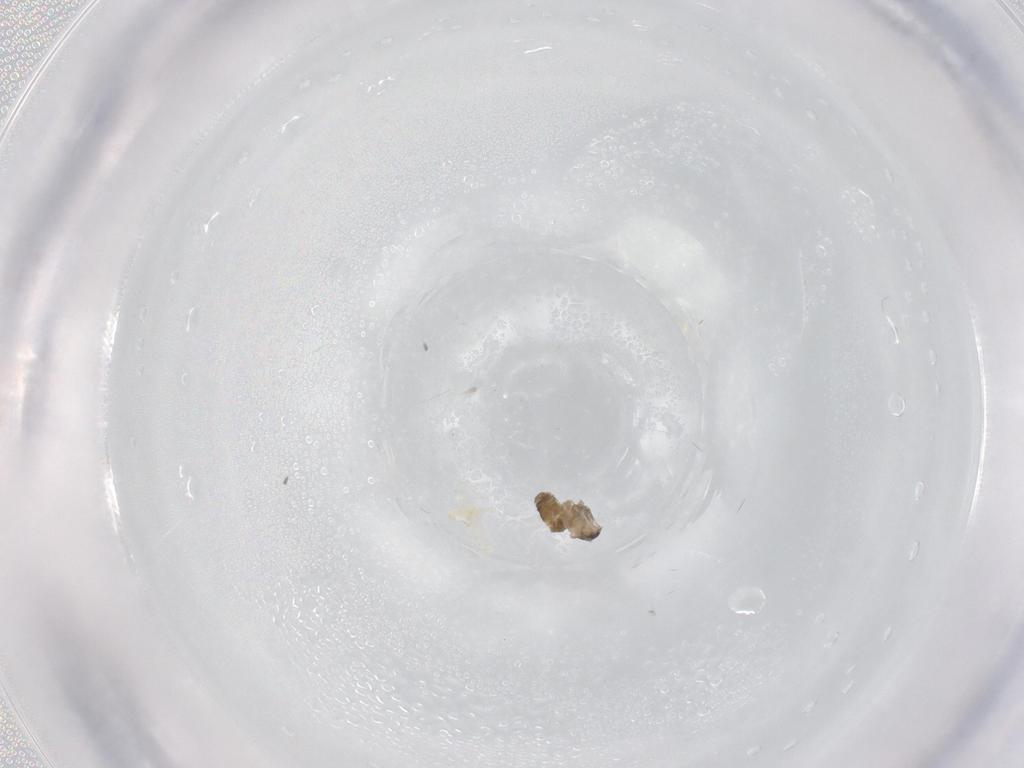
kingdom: Animalia
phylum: Arthropoda
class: Insecta
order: Diptera
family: Cecidomyiidae
